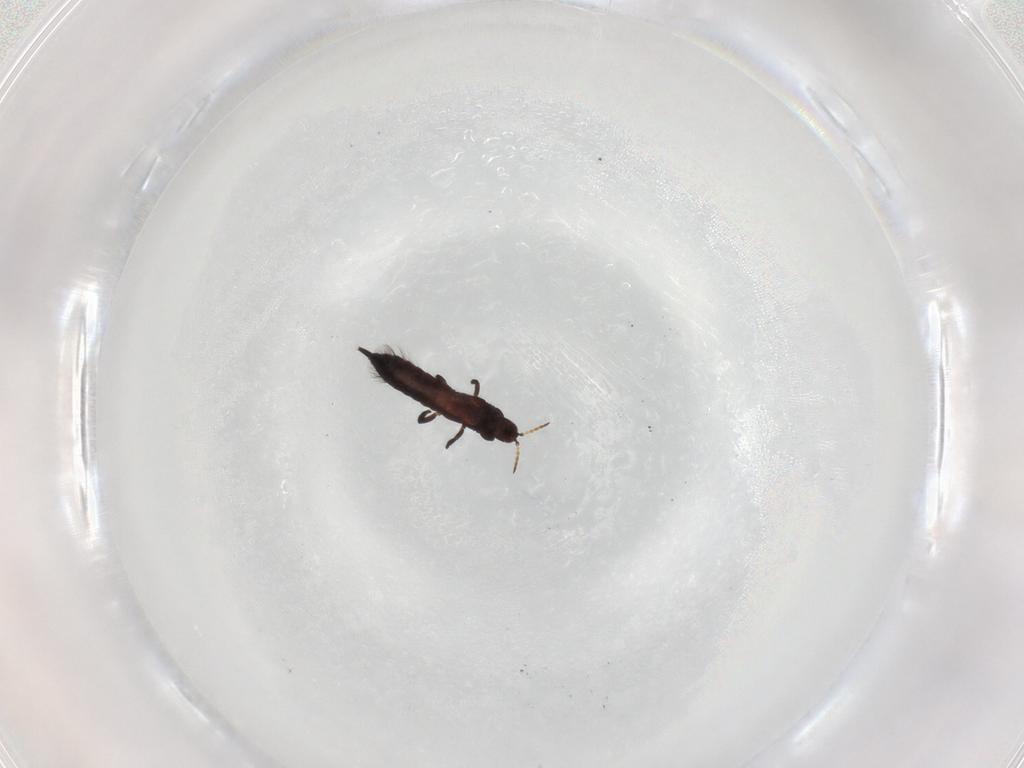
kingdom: Animalia
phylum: Arthropoda
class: Insecta
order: Thysanoptera
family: Phlaeothripidae
